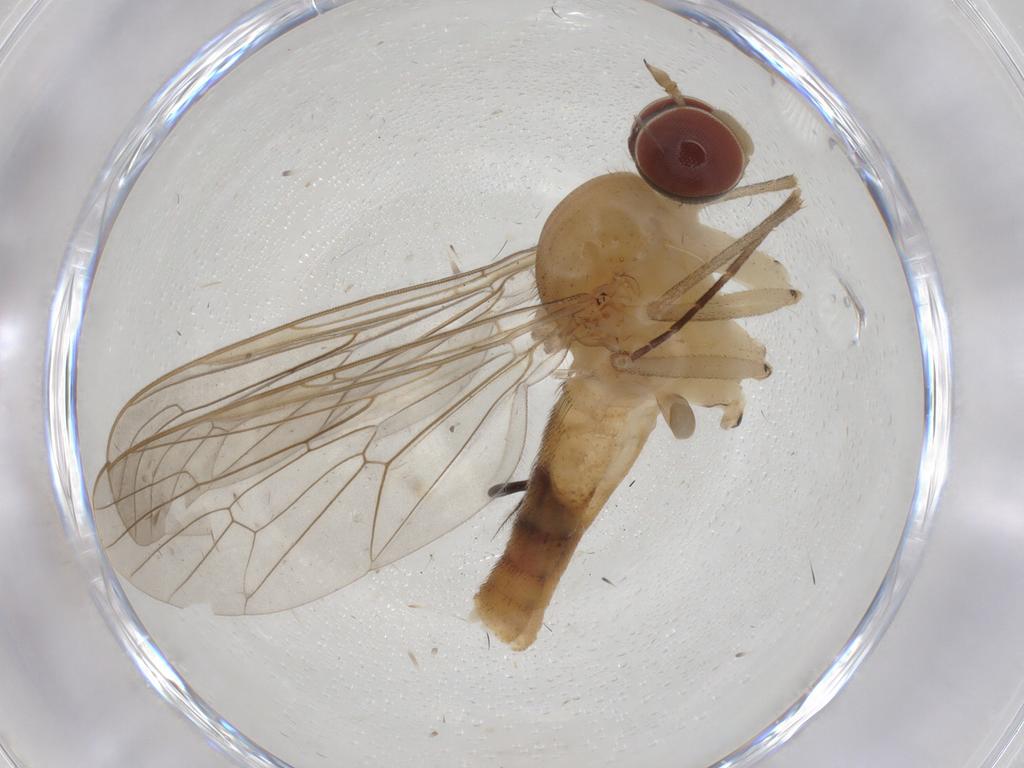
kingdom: Animalia
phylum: Arthropoda
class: Insecta
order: Diptera
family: Apsilocephalidae
